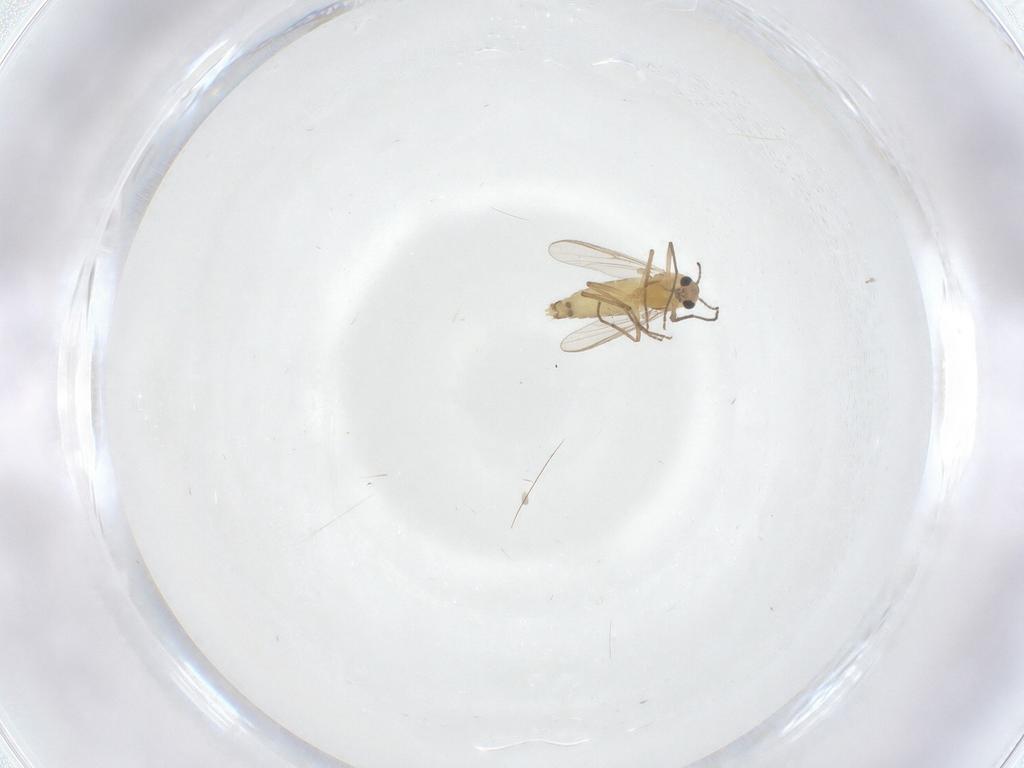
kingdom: Animalia
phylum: Arthropoda
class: Insecta
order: Diptera
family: Chironomidae
